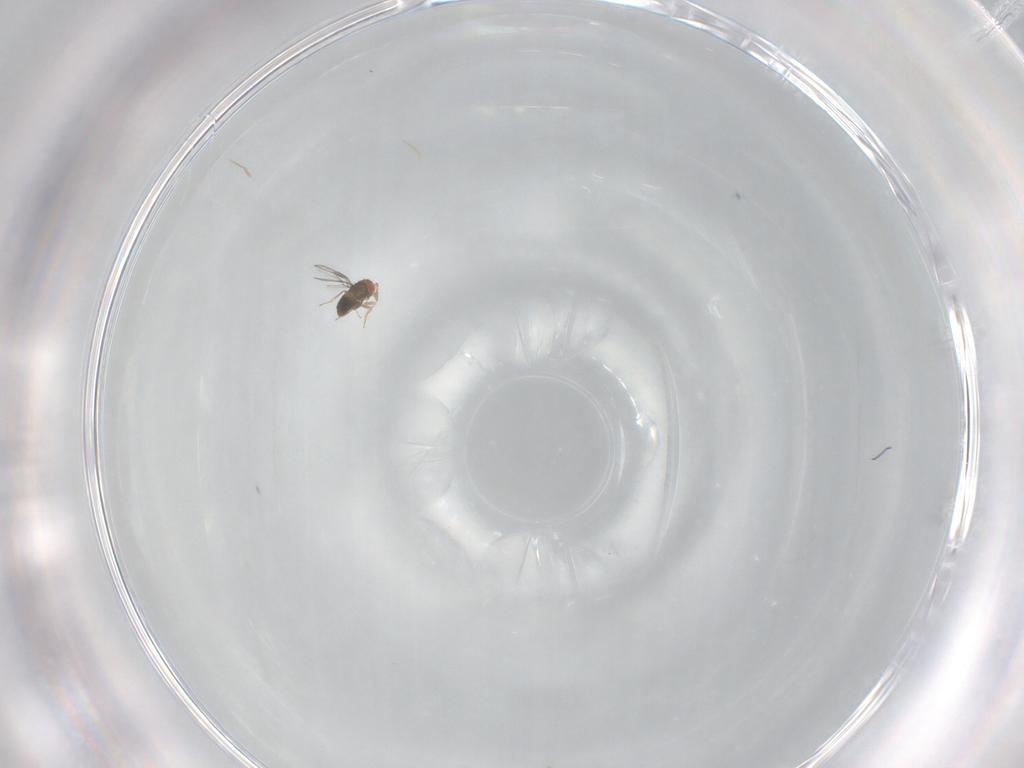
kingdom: Animalia
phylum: Arthropoda
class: Insecta
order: Hymenoptera
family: Trichogrammatidae
